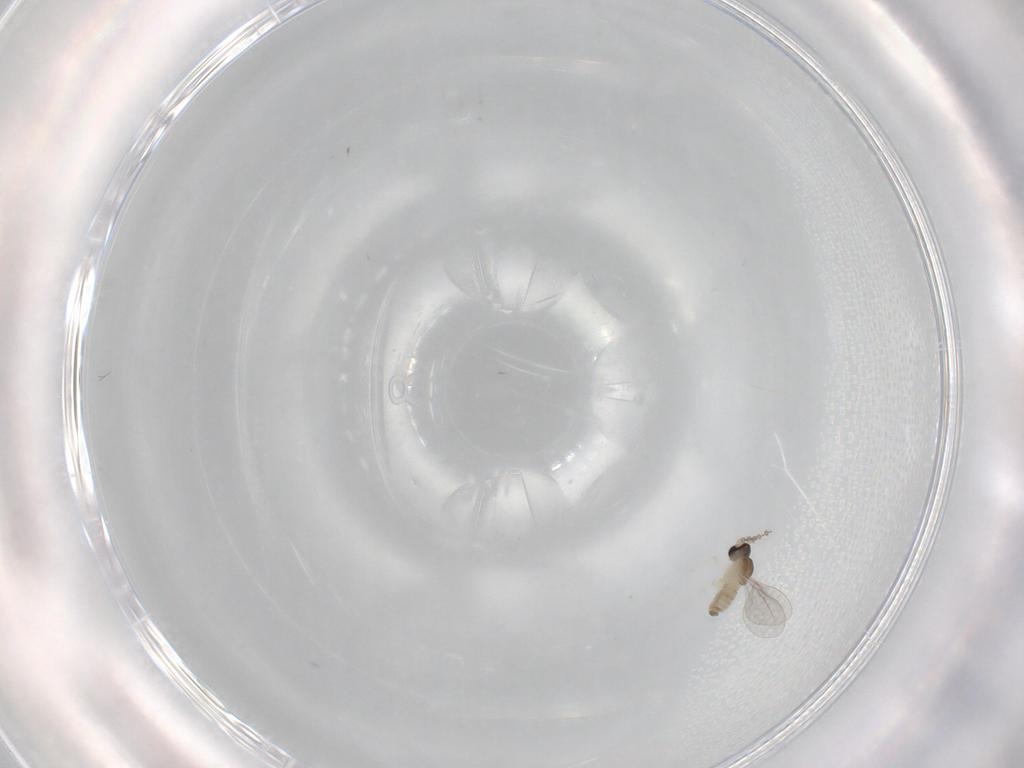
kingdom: Animalia
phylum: Arthropoda
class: Insecta
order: Diptera
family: Cecidomyiidae
